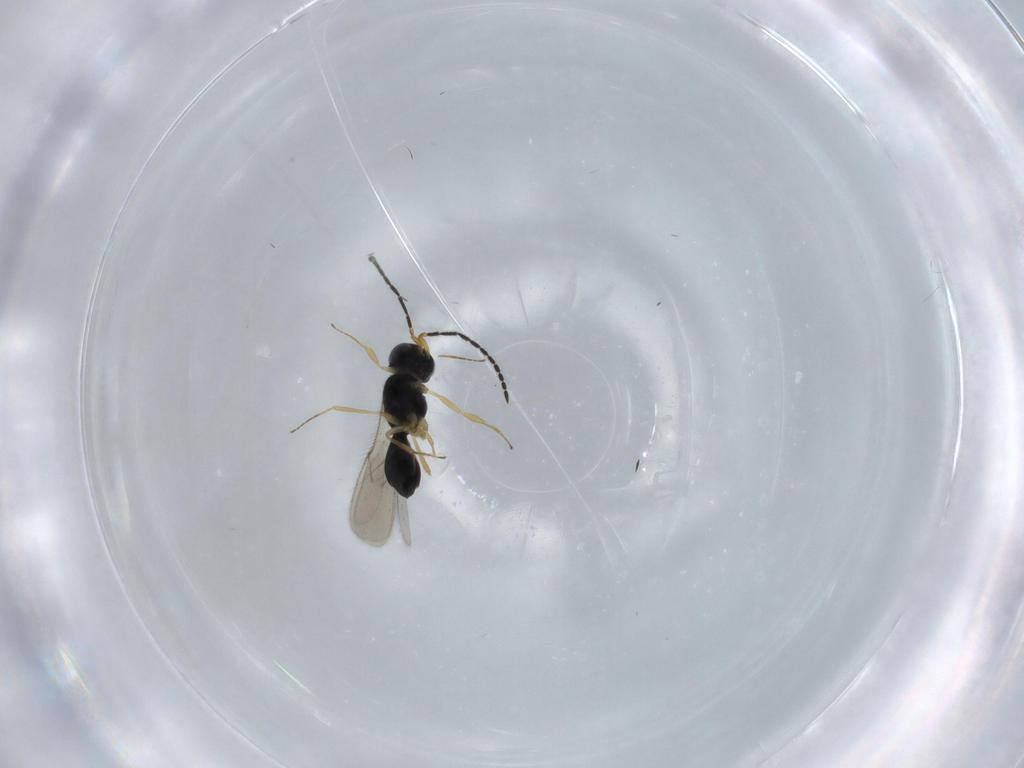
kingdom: Animalia
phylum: Arthropoda
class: Insecta
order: Hymenoptera
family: Scelionidae
